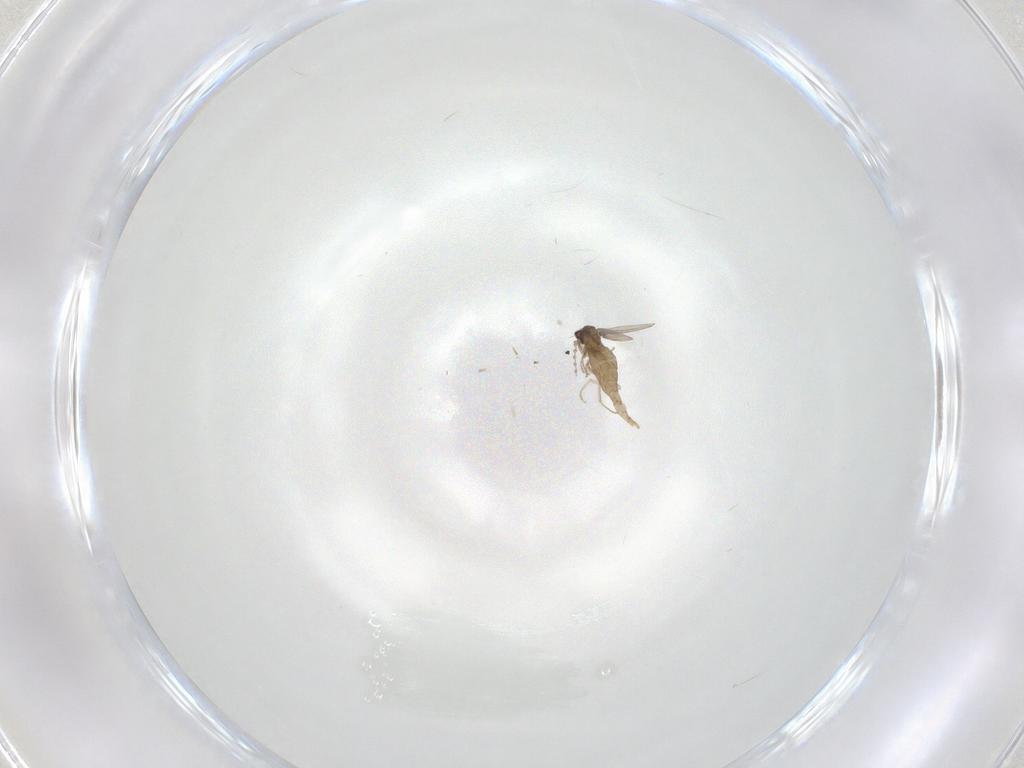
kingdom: Animalia
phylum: Arthropoda
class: Insecta
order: Diptera
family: Cecidomyiidae
